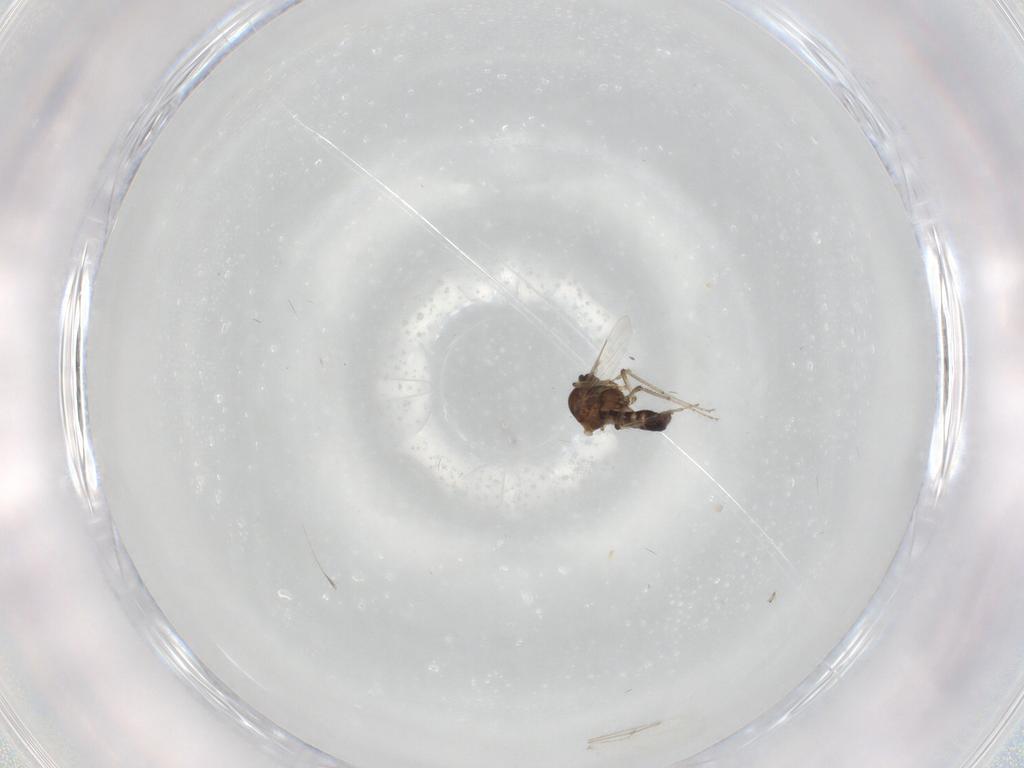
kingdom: Animalia
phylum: Arthropoda
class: Insecta
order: Diptera
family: Ceratopogonidae
